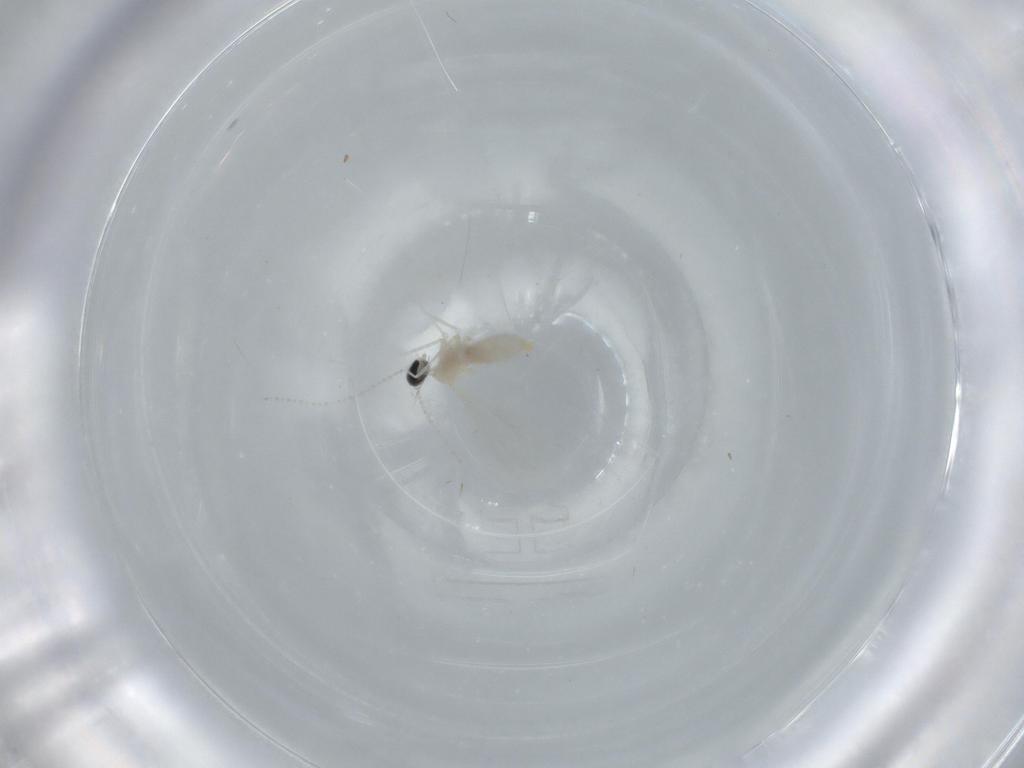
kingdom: Animalia
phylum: Arthropoda
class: Insecta
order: Diptera
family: Cecidomyiidae
